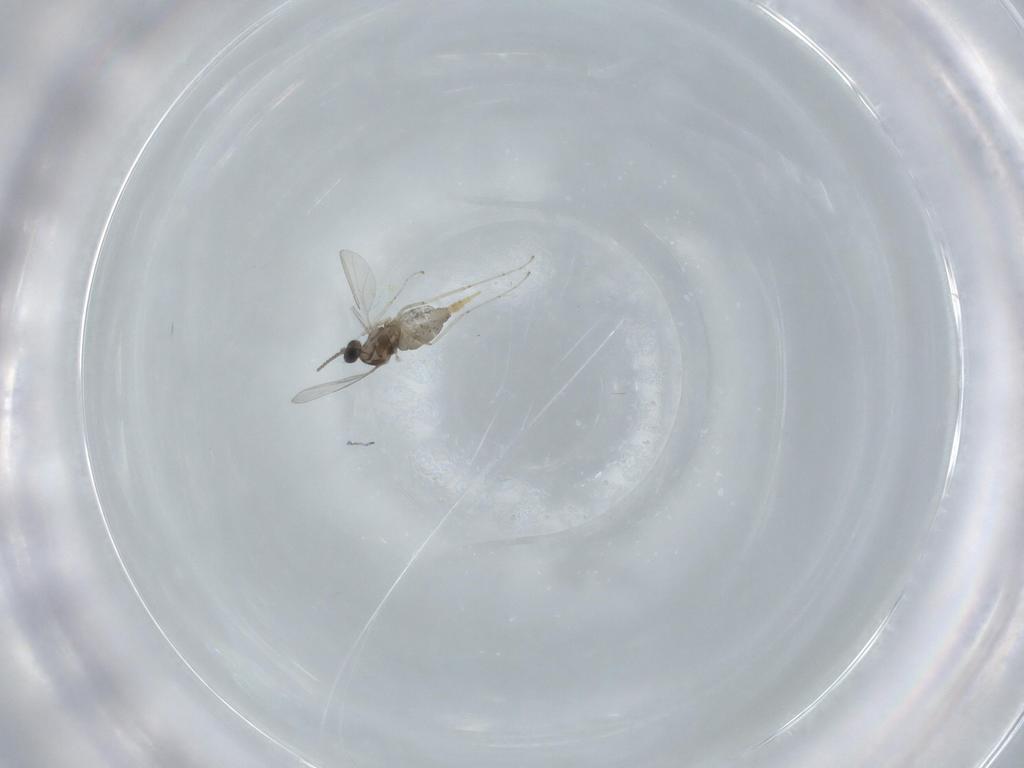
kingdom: Animalia
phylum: Arthropoda
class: Insecta
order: Diptera
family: Cecidomyiidae
